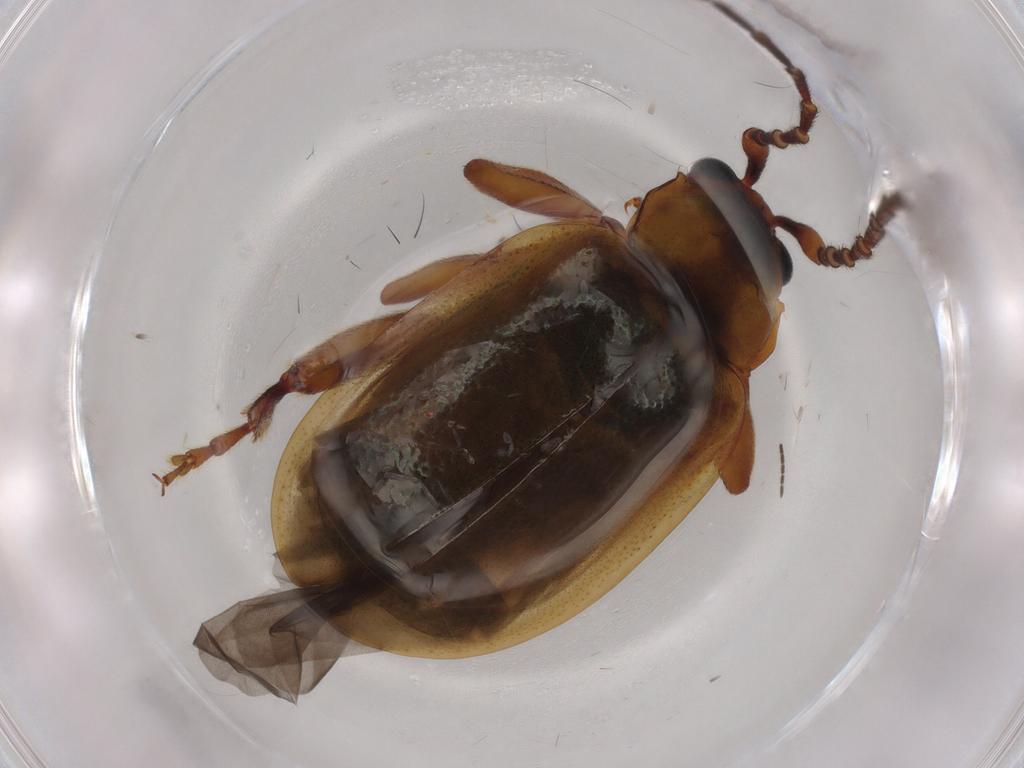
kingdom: Animalia
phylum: Arthropoda
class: Insecta
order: Coleoptera
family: Chrysomelidae
